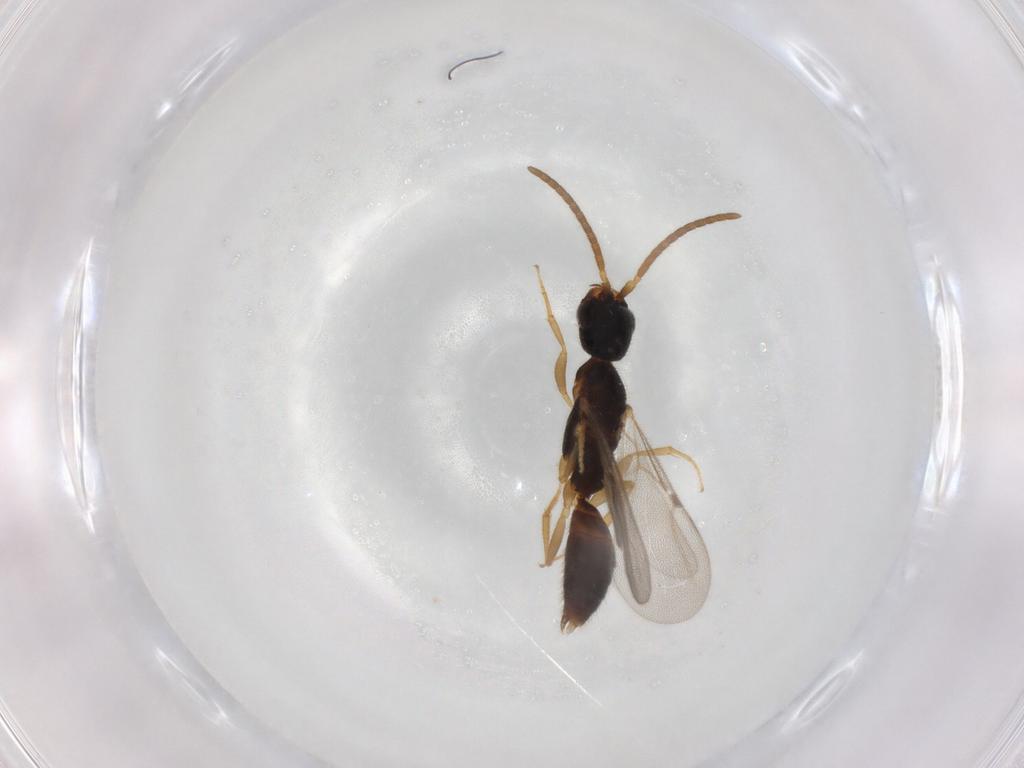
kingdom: Animalia
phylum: Arthropoda
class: Insecta
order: Hymenoptera
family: Bethylidae
